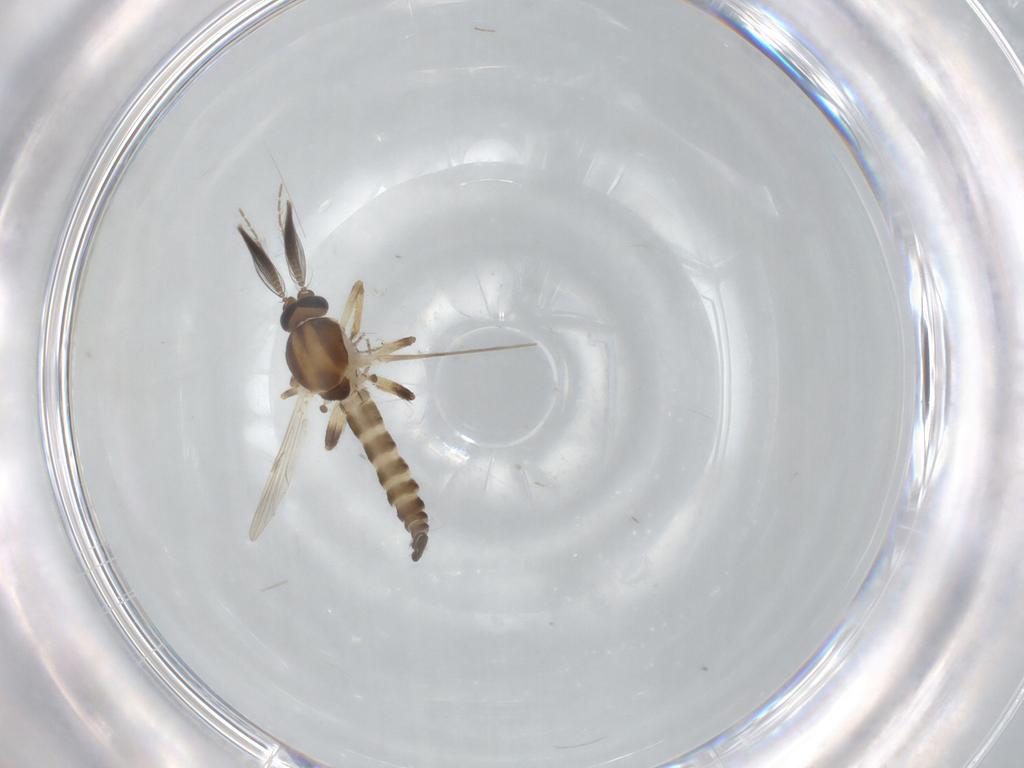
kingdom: Animalia
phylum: Arthropoda
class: Insecta
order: Diptera
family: Ceratopogonidae
